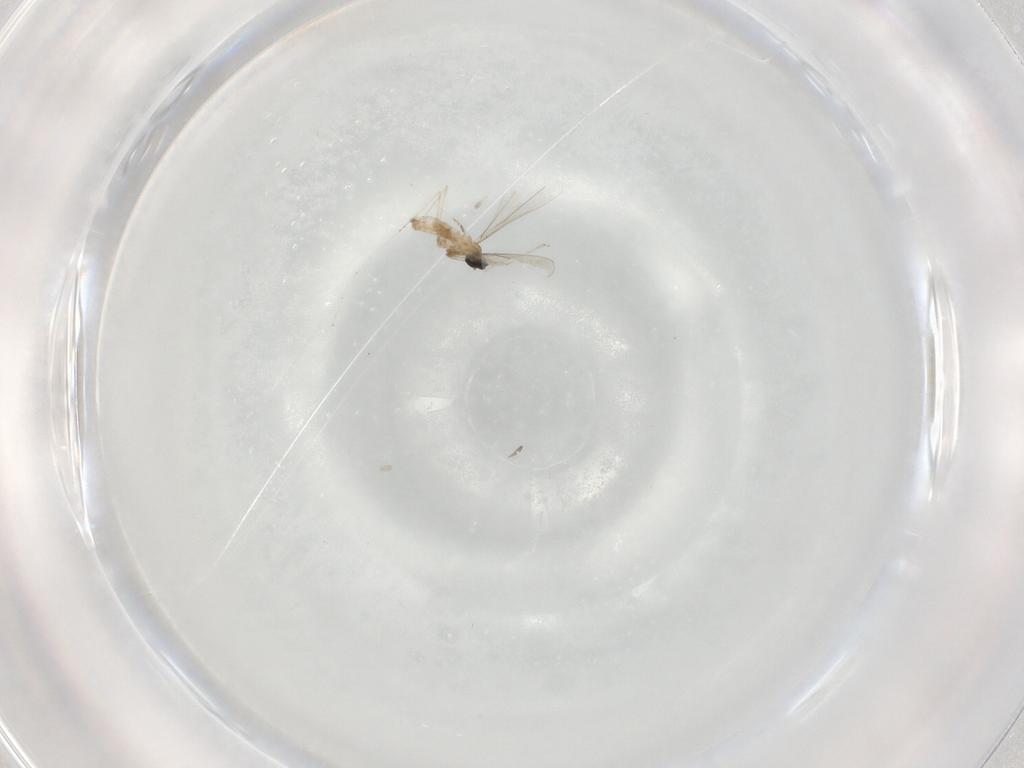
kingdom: Animalia
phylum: Arthropoda
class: Insecta
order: Diptera
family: Cecidomyiidae
